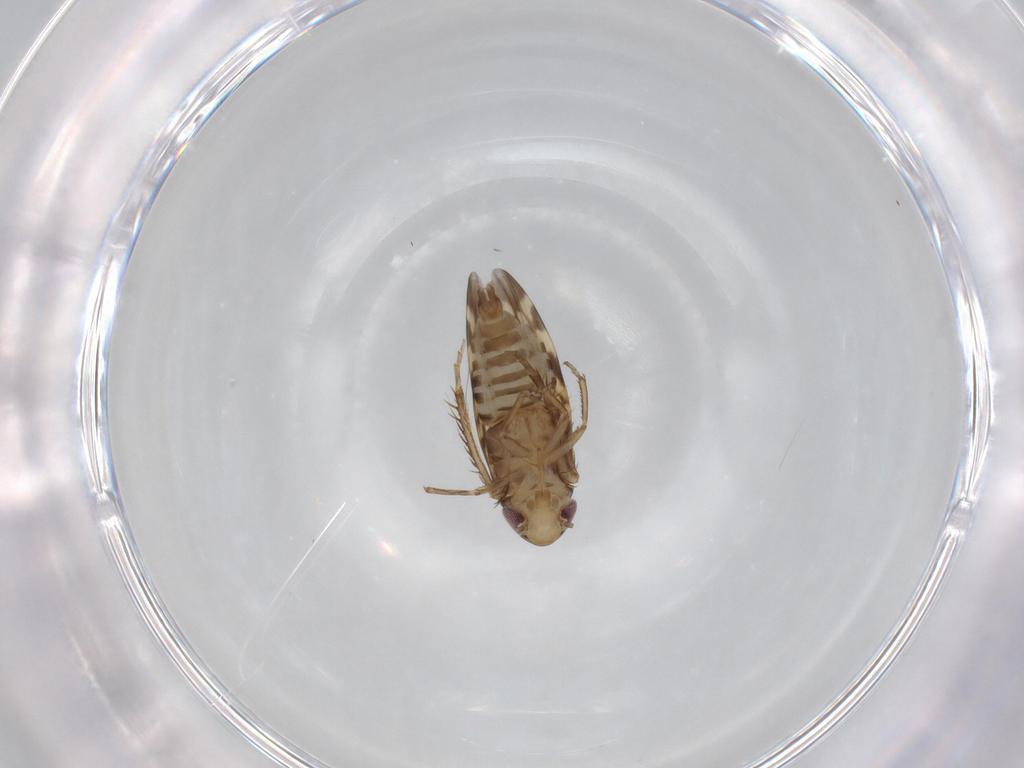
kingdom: Animalia
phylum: Arthropoda
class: Insecta
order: Hemiptera
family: Cicadellidae
